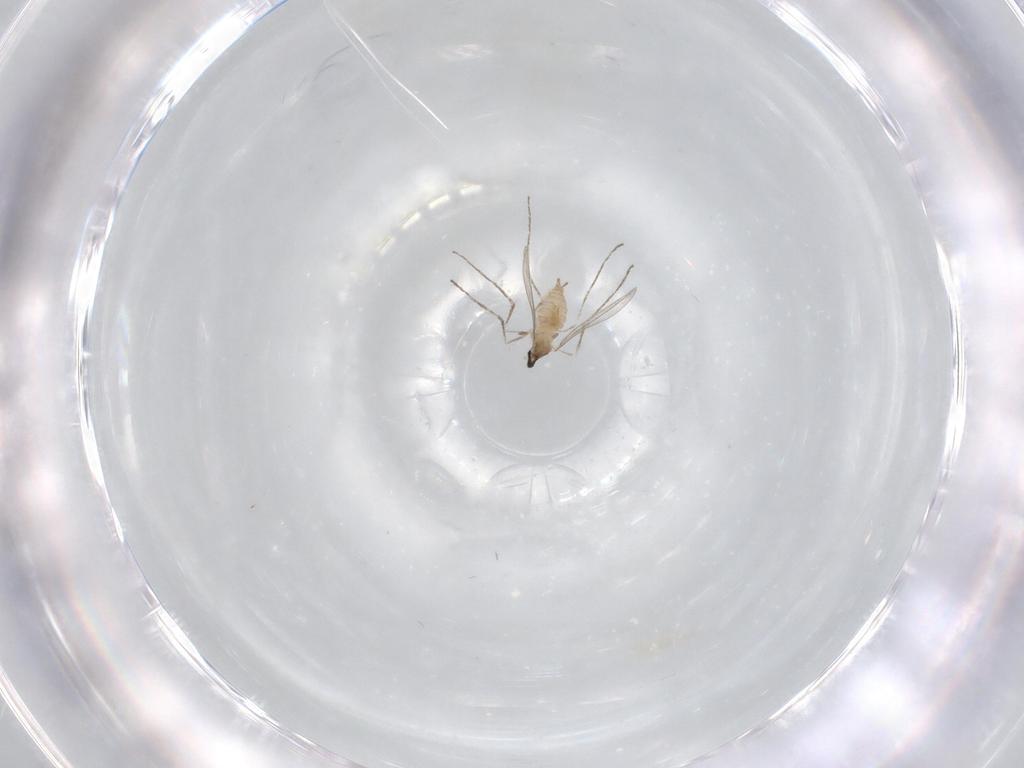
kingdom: Animalia
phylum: Arthropoda
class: Insecta
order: Diptera
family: Cecidomyiidae
